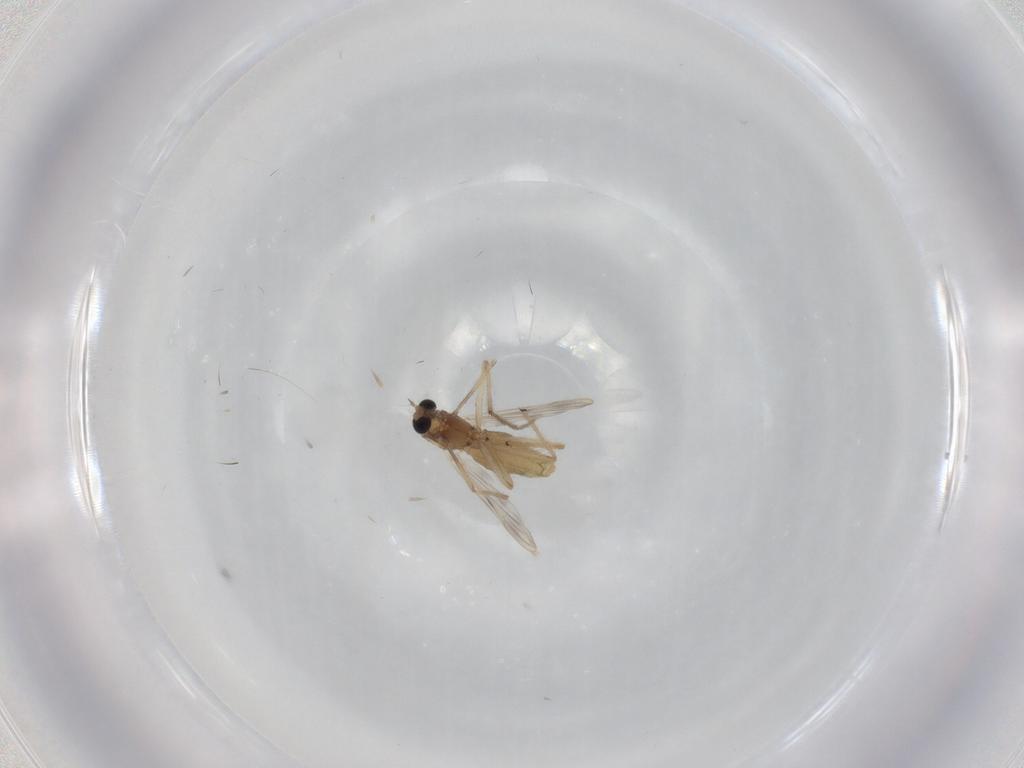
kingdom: Animalia
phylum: Arthropoda
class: Insecta
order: Diptera
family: Chironomidae
